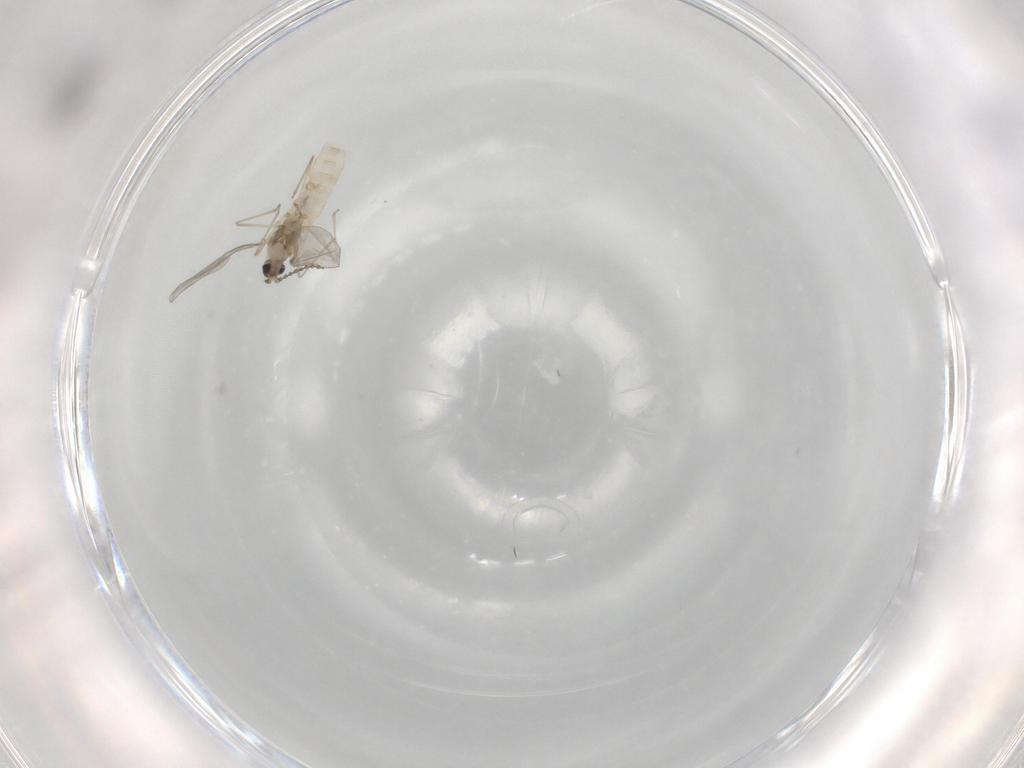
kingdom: Animalia
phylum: Arthropoda
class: Insecta
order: Diptera
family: Cecidomyiidae
